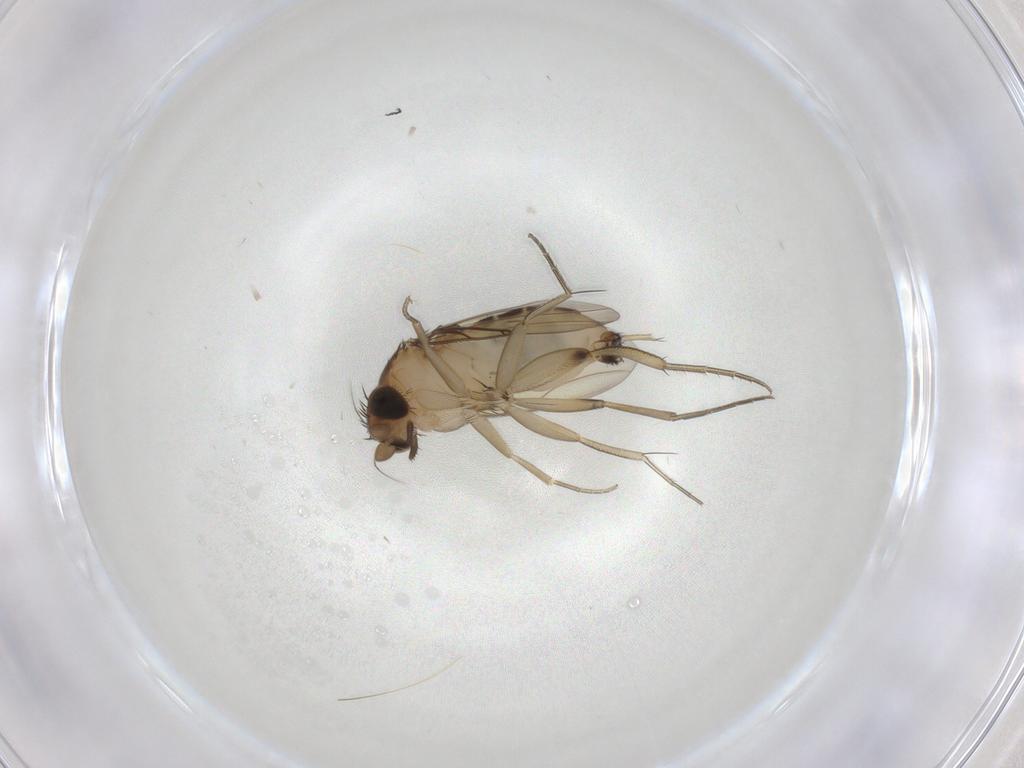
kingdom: Animalia
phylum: Arthropoda
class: Insecta
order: Diptera
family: Phoridae
